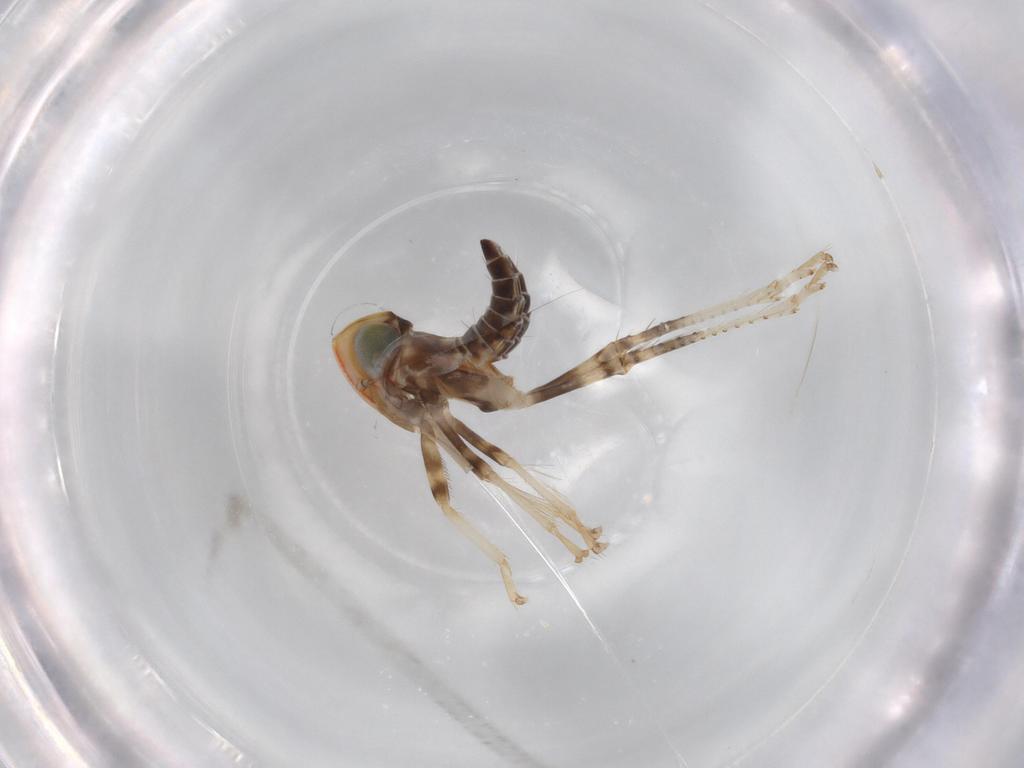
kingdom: Animalia
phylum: Arthropoda
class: Insecta
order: Hemiptera
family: Cicadellidae
